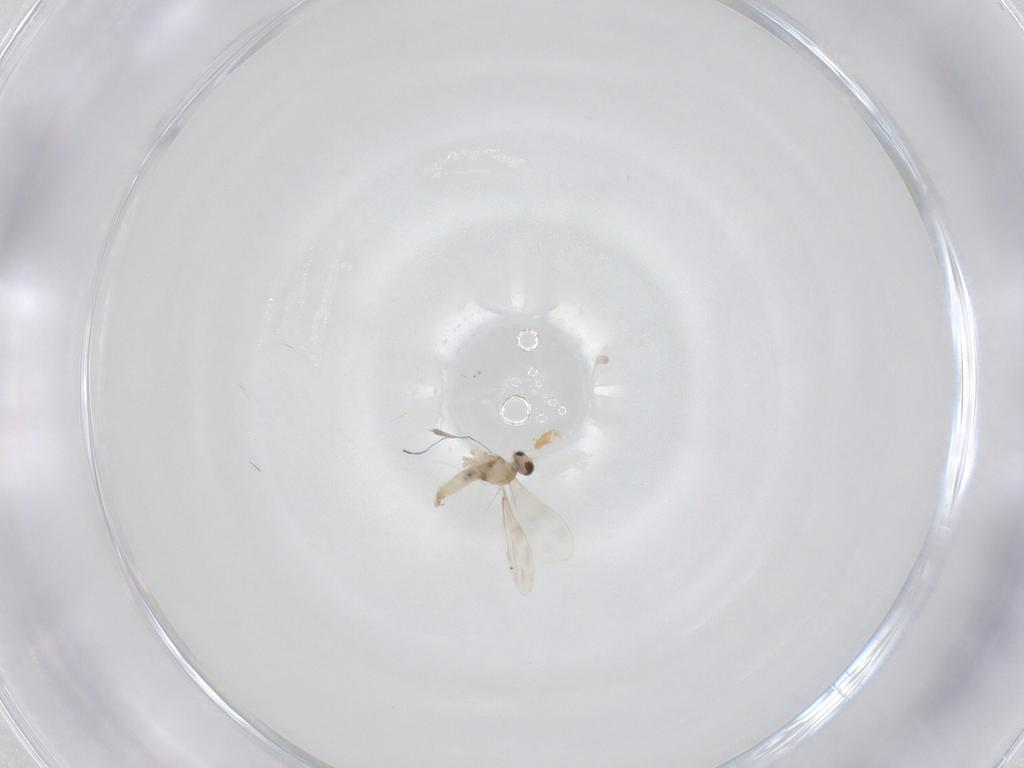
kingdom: Animalia
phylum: Arthropoda
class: Insecta
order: Diptera
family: Cecidomyiidae
